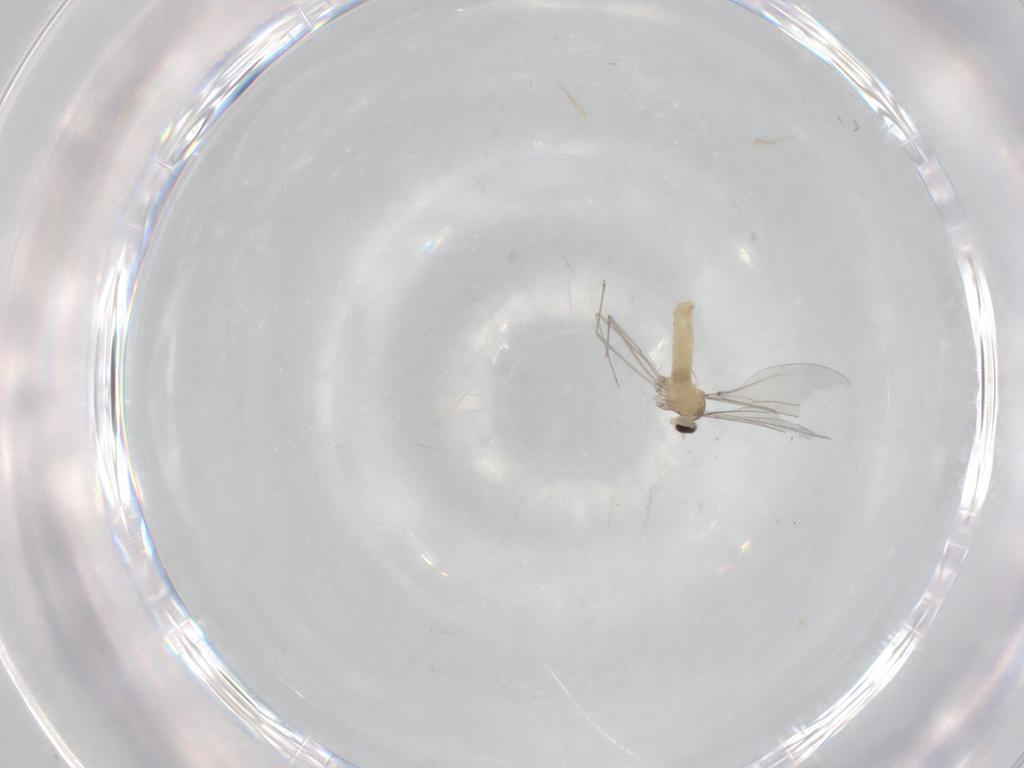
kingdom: Animalia
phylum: Arthropoda
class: Insecta
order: Diptera
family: Cecidomyiidae
